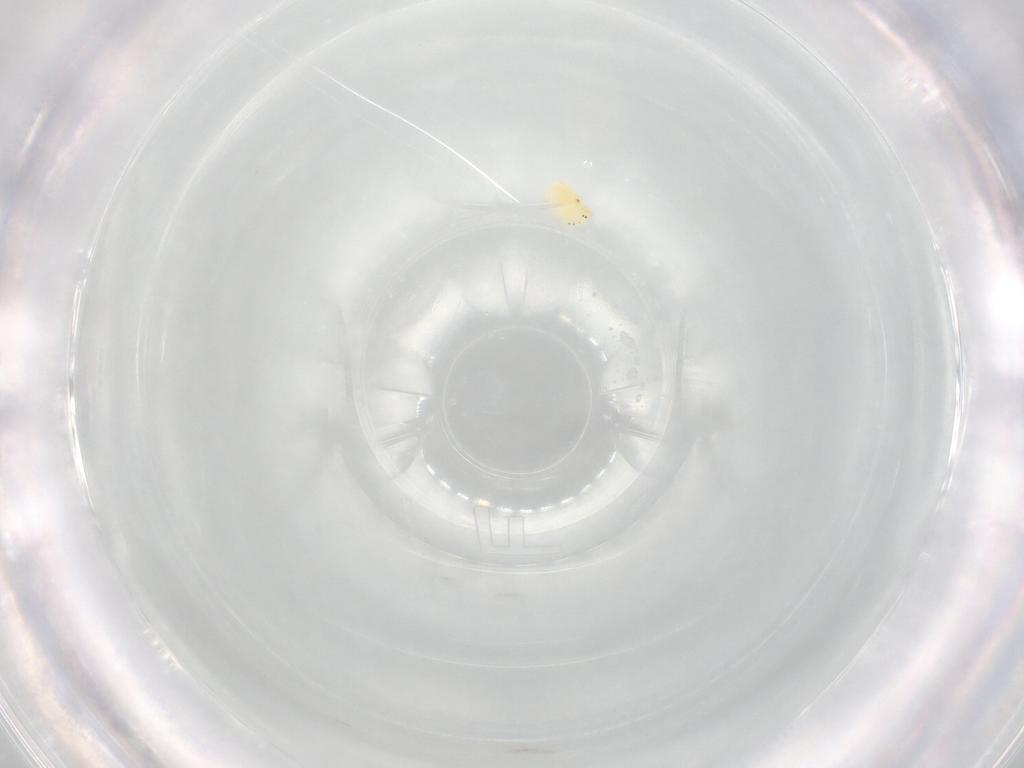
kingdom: Animalia
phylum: Arthropoda
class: Arachnida
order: Trombidiformes
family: Hydryphantidae
